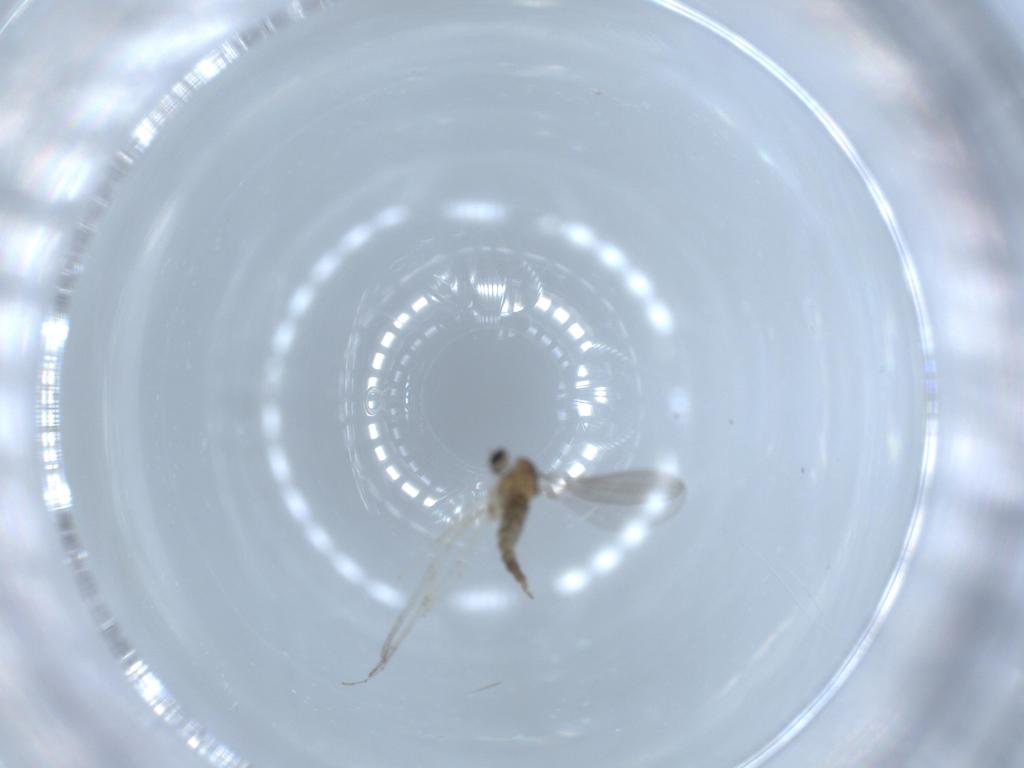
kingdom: Animalia
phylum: Arthropoda
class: Insecta
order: Diptera
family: Cecidomyiidae
